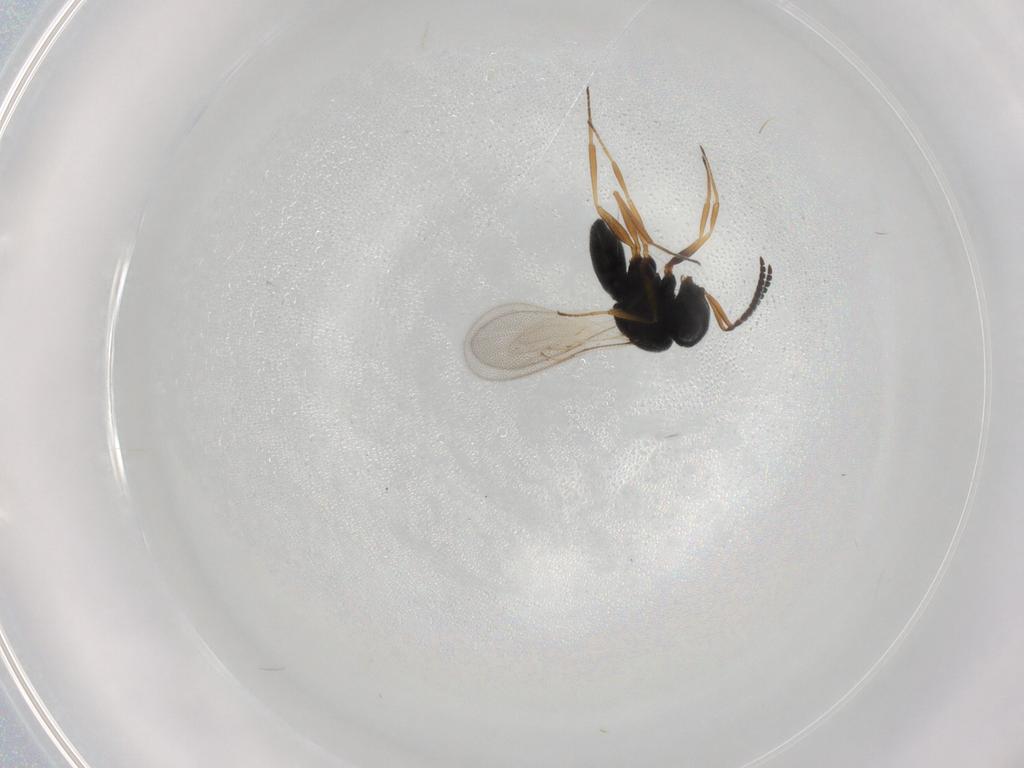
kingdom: Animalia
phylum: Arthropoda
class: Insecta
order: Hymenoptera
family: Scelionidae
